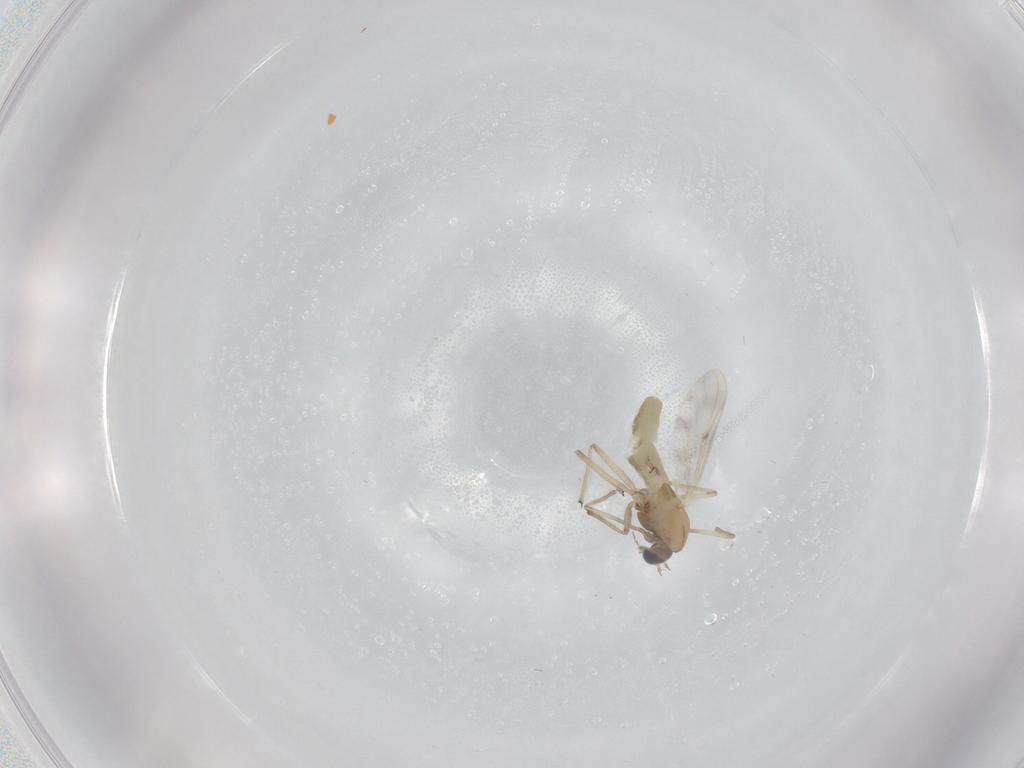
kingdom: Animalia
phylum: Arthropoda
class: Insecta
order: Diptera
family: Chironomidae
